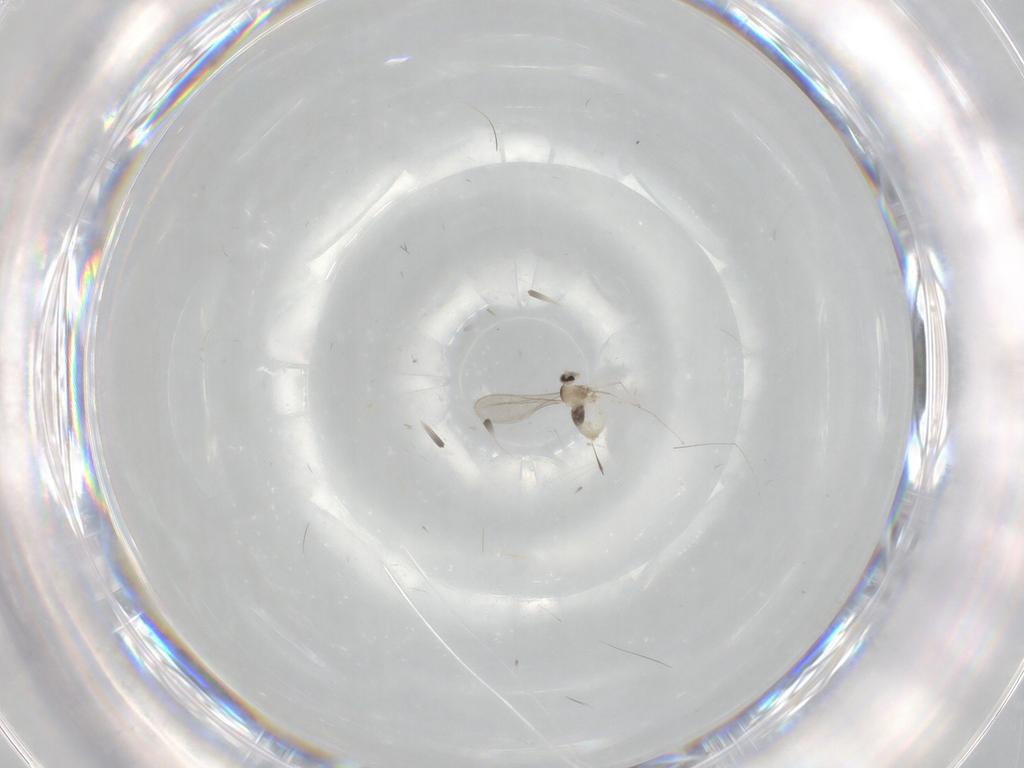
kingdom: Animalia
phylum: Arthropoda
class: Insecta
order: Diptera
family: Cecidomyiidae
